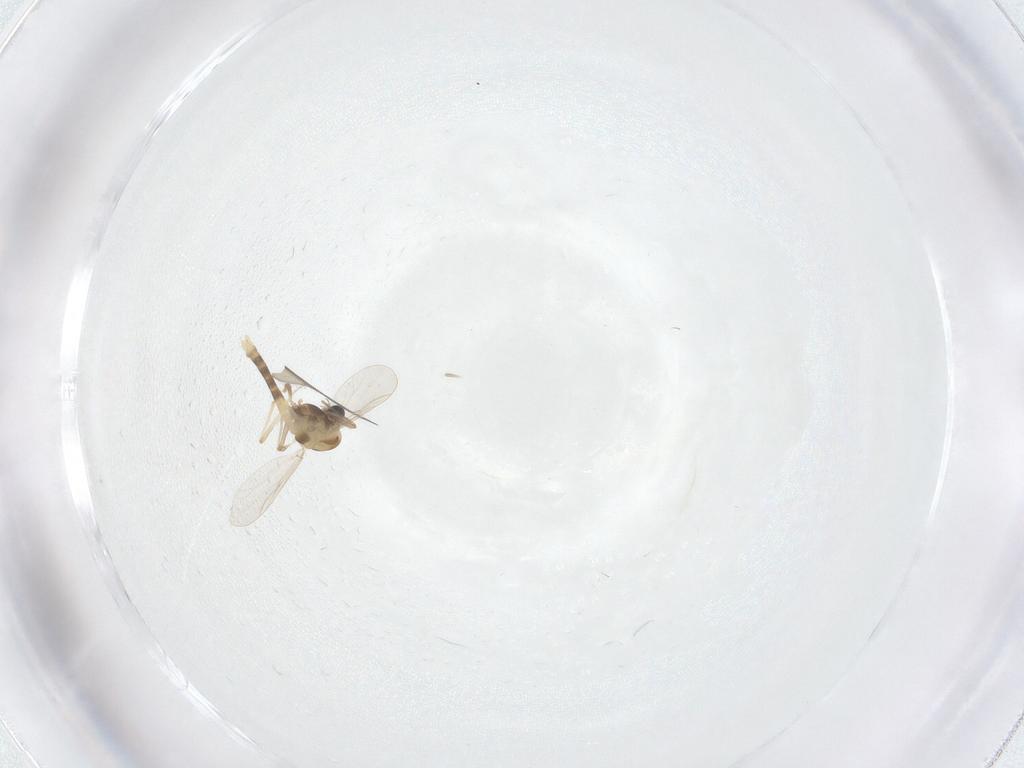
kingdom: Animalia
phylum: Arthropoda
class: Insecta
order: Diptera
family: Chironomidae
